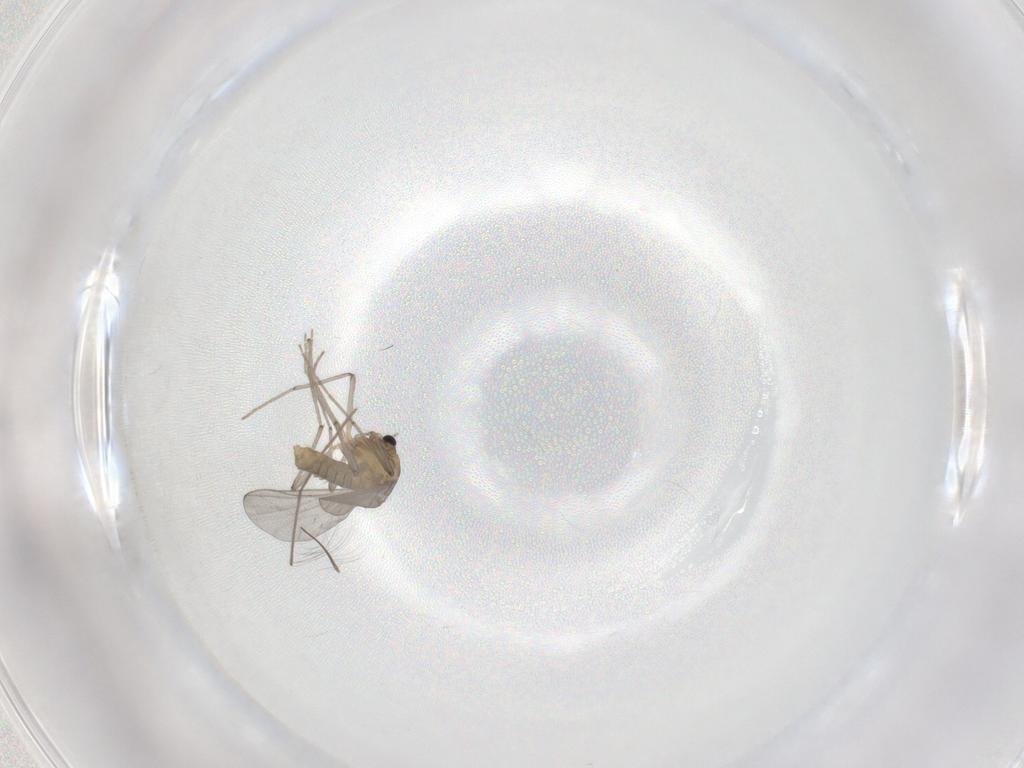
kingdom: Animalia
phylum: Arthropoda
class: Insecta
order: Diptera
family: Chironomidae
